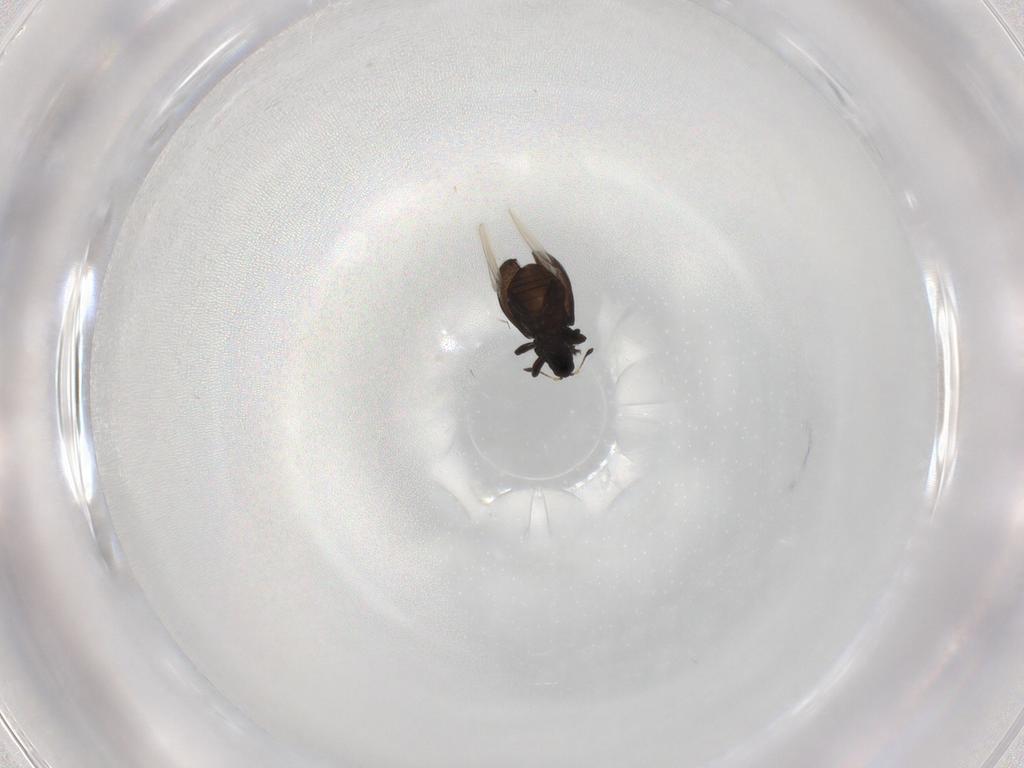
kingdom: Animalia
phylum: Arthropoda
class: Insecta
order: Coleoptera
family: Curculionidae
